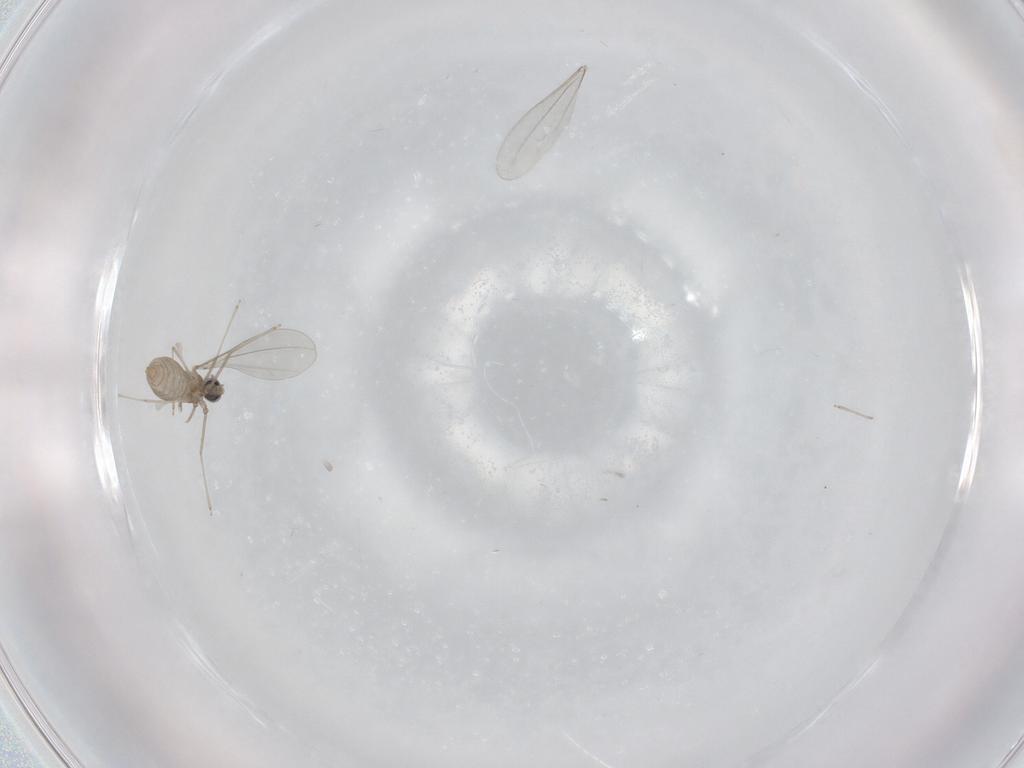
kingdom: Animalia
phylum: Arthropoda
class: Insecta
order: Diptera
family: Cecidomyiidae
